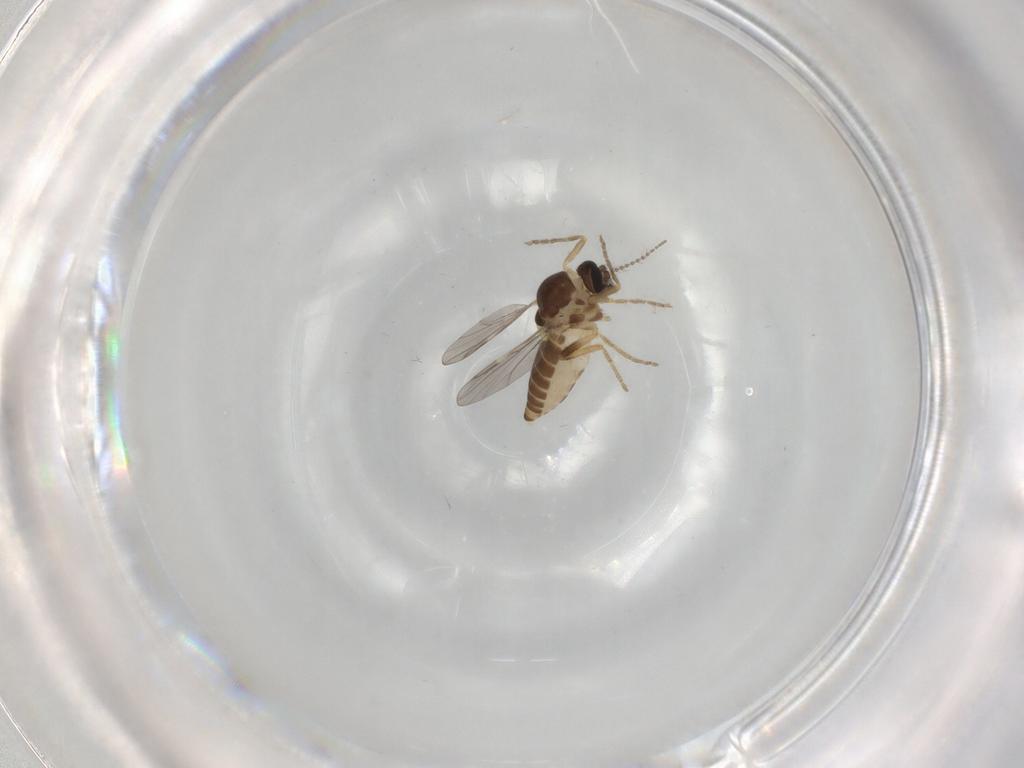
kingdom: Animalia
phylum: Arthropoda
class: Insecta
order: Diptera
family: Ceratopogonidae
